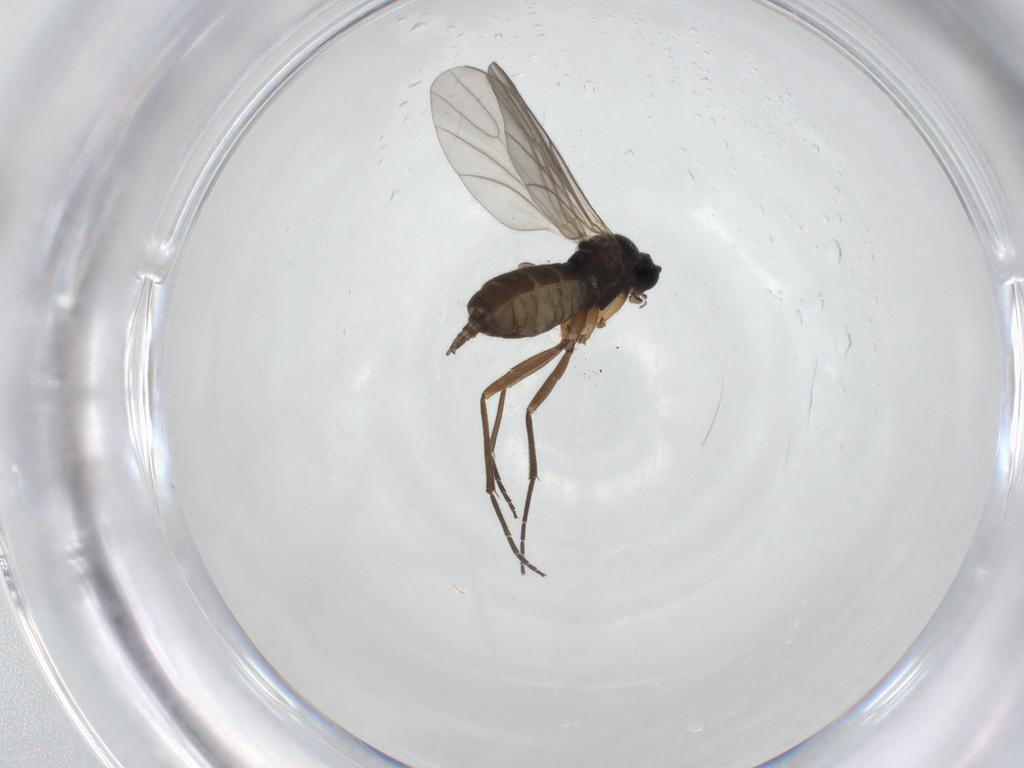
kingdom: Animalia
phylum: Arthropoda
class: Insecta
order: Diptera
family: Sciaridae
